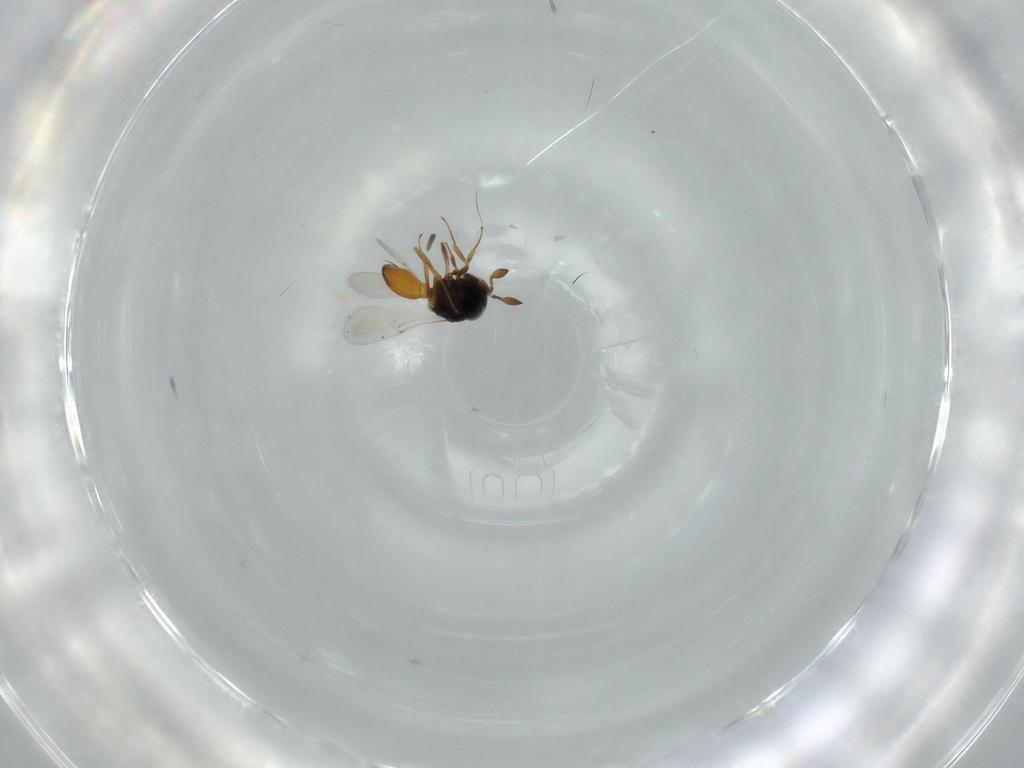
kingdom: Animalia
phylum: Arthropoda
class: Insecta
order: Hymenoptera
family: Scelionidae
